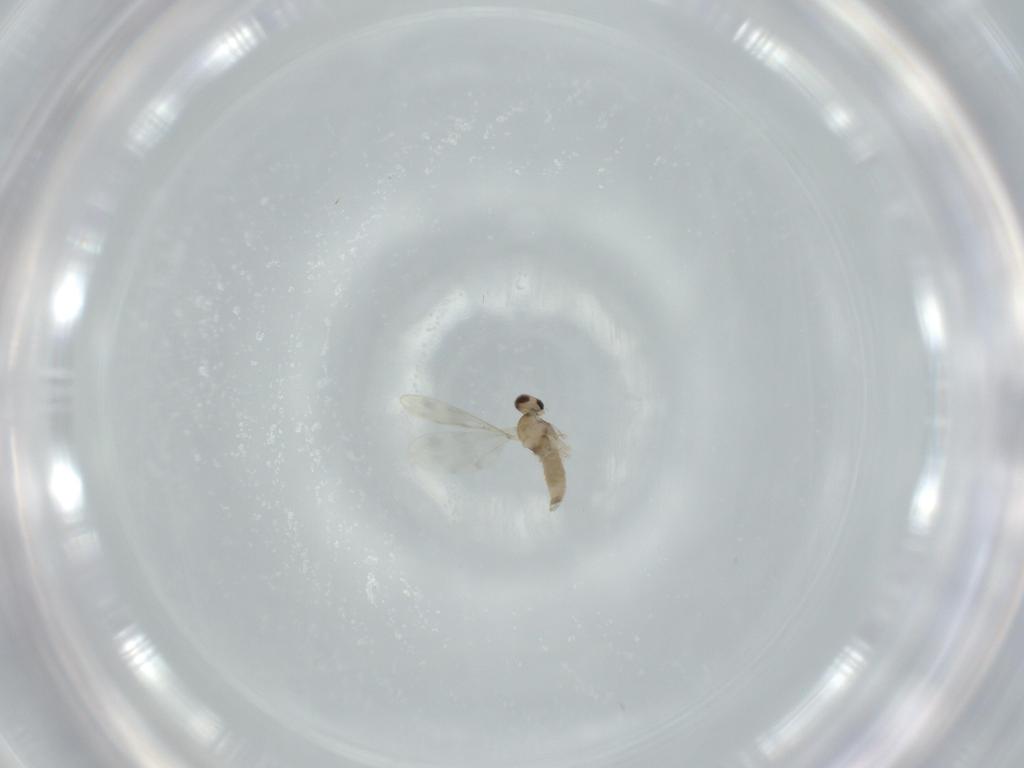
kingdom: Animalia
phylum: Arthropoda
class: Insecta
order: Diptera
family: Cecidomyiidae
